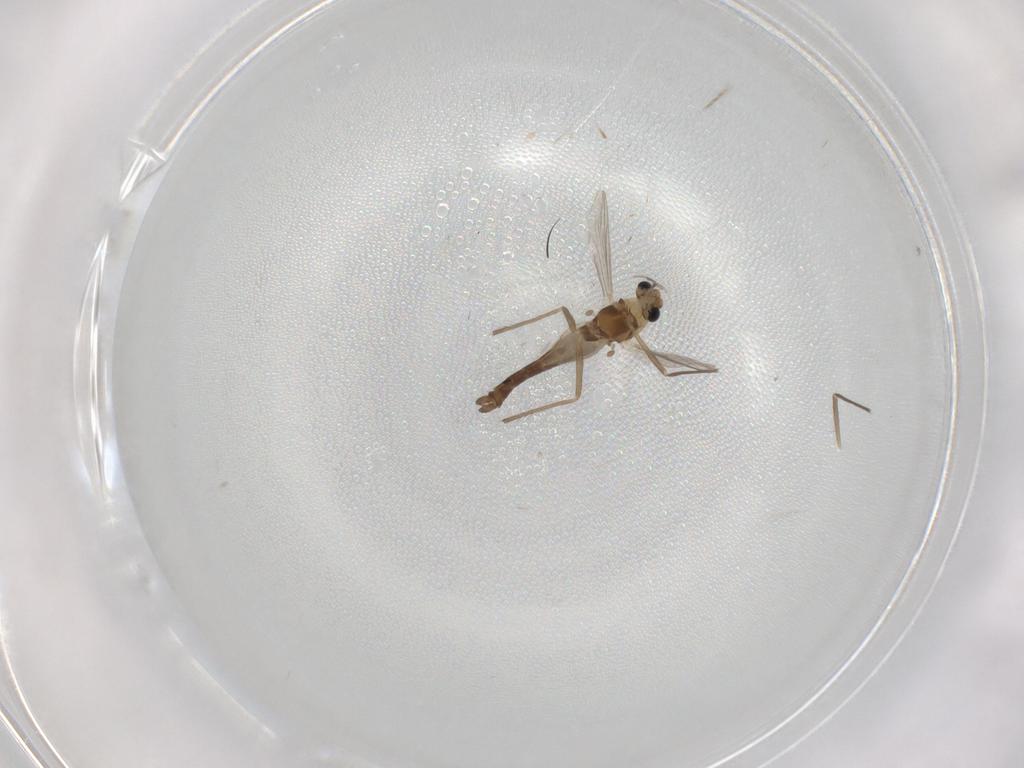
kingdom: Animalia
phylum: Arthropoda
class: Insecta
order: Diptera
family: Chironomidae
